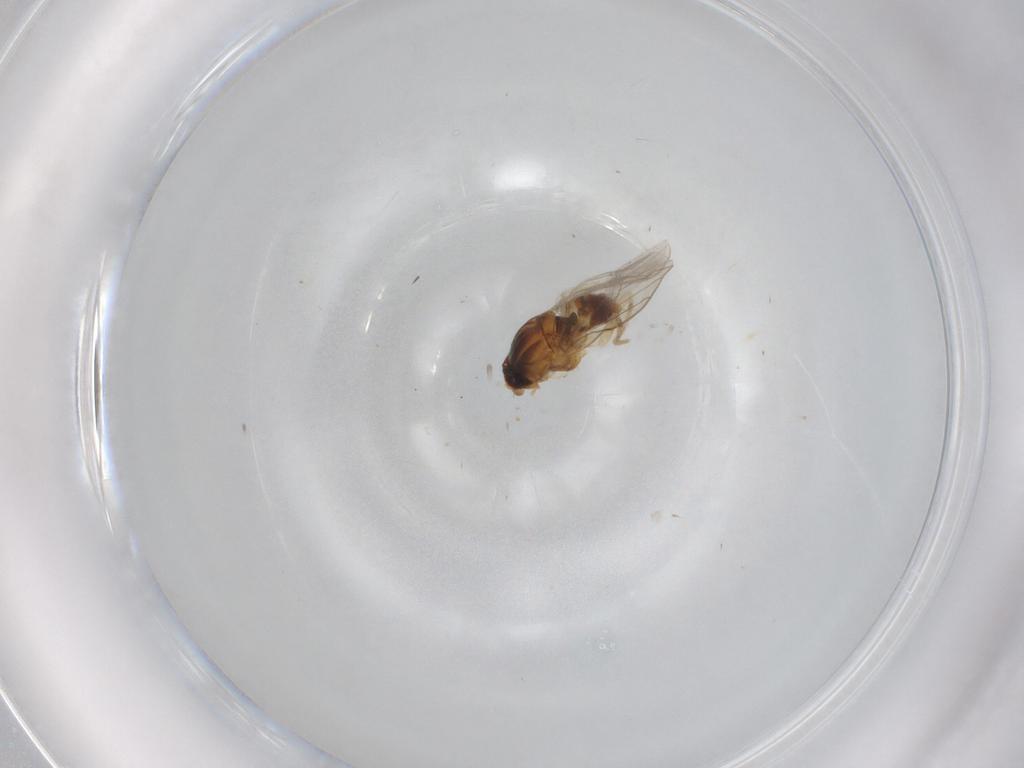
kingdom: Animalia
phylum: Arthropoda
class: Insecta
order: Diptera
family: Chloropidae
